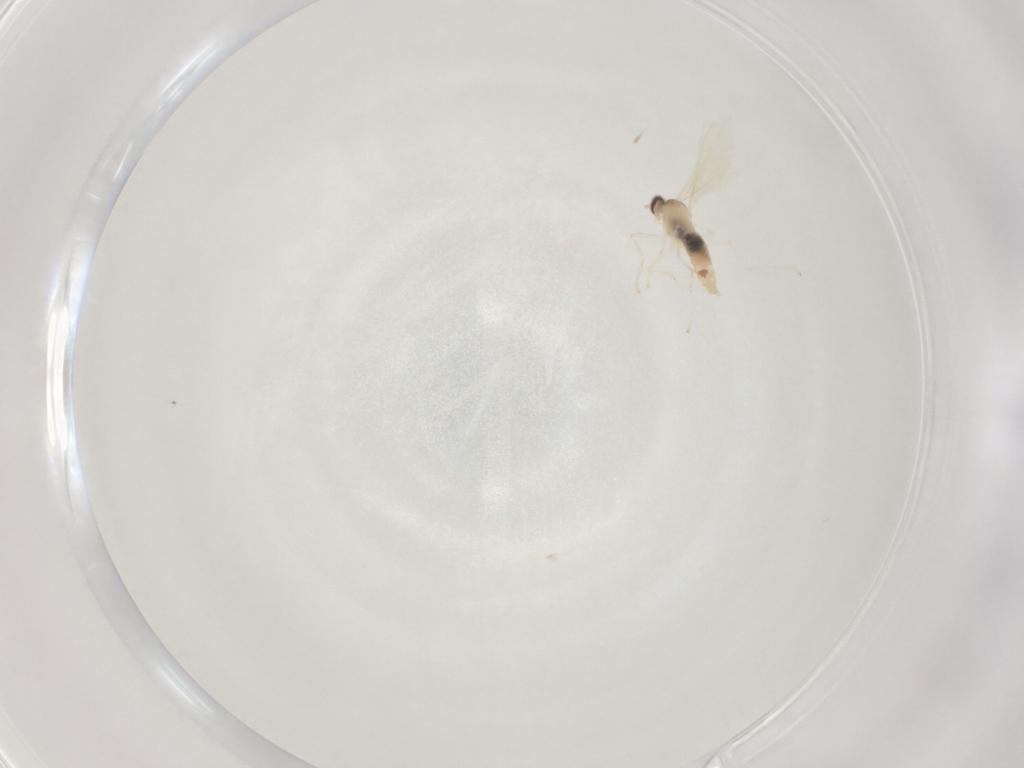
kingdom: Animalia
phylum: Arthropoda
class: Insecta
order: Diptera
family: Cecidomyiidae
